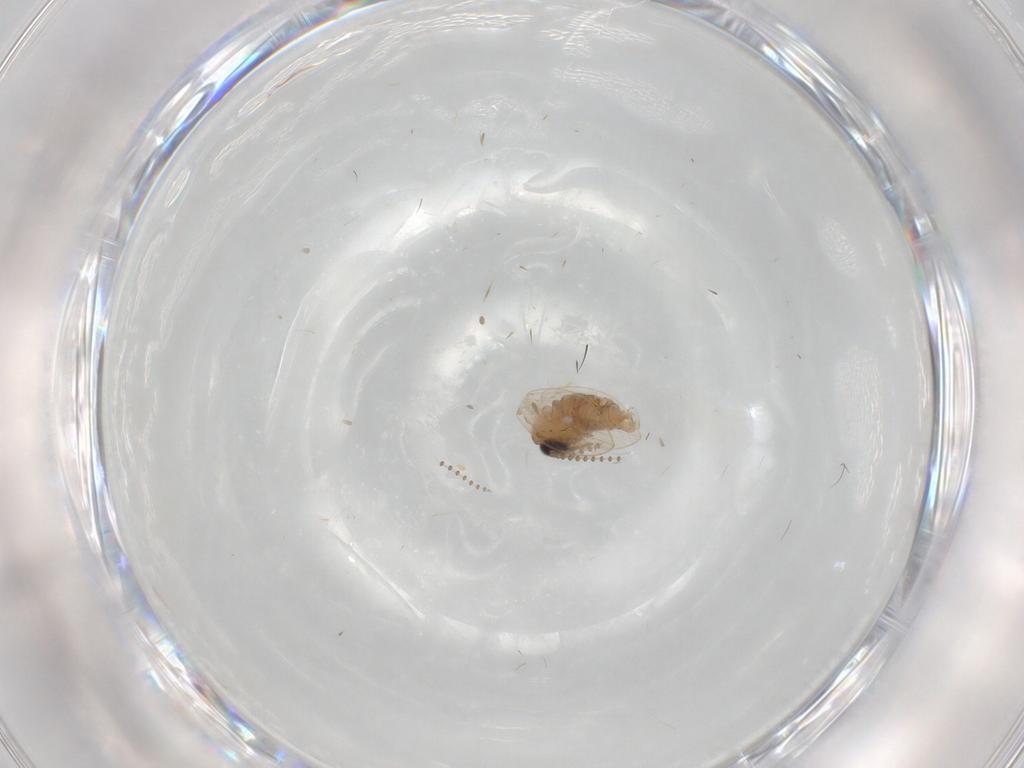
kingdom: Animalia
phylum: Arthropoda
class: Insecta
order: Diptera
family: Psychodidae
